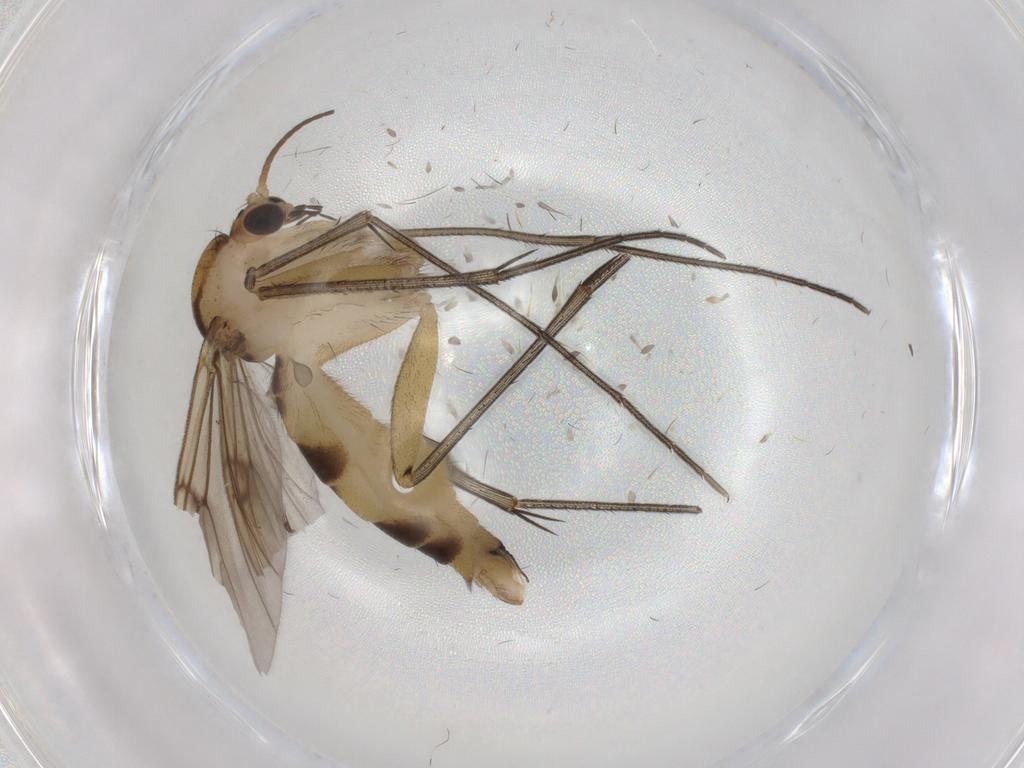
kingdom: Animalia
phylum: Arthropoda
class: Insecta
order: Diptera
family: Mycetophilidae
